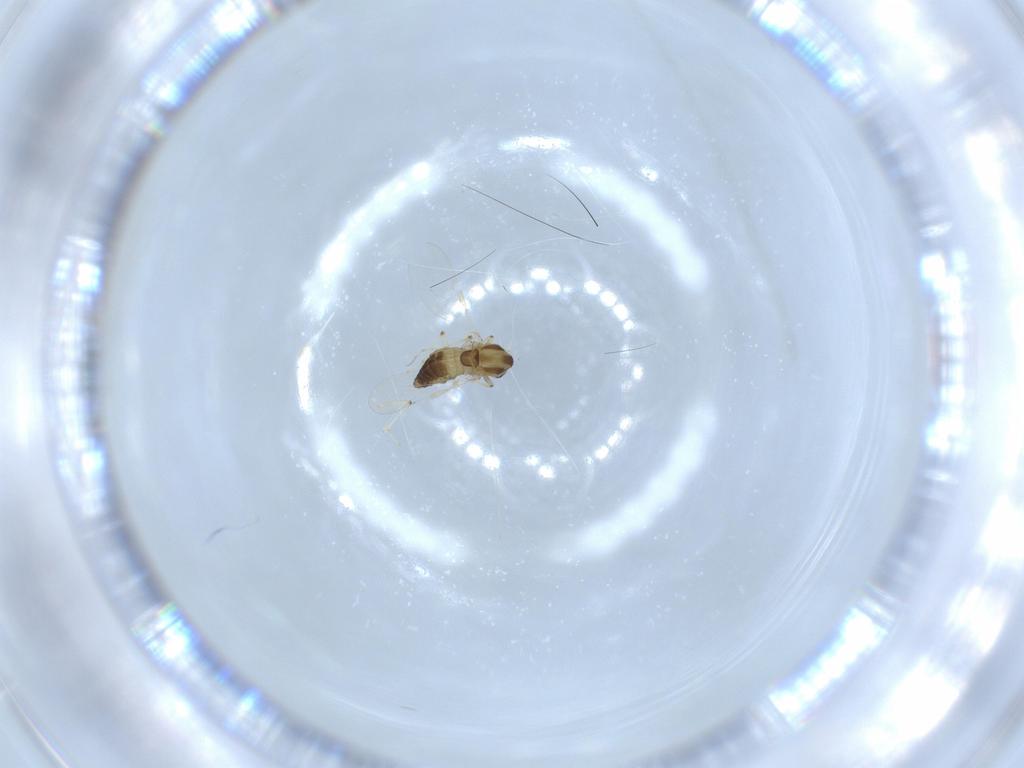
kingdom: Animalia
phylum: Arthropoda
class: Insecta
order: Diptera
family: Chironomidae
